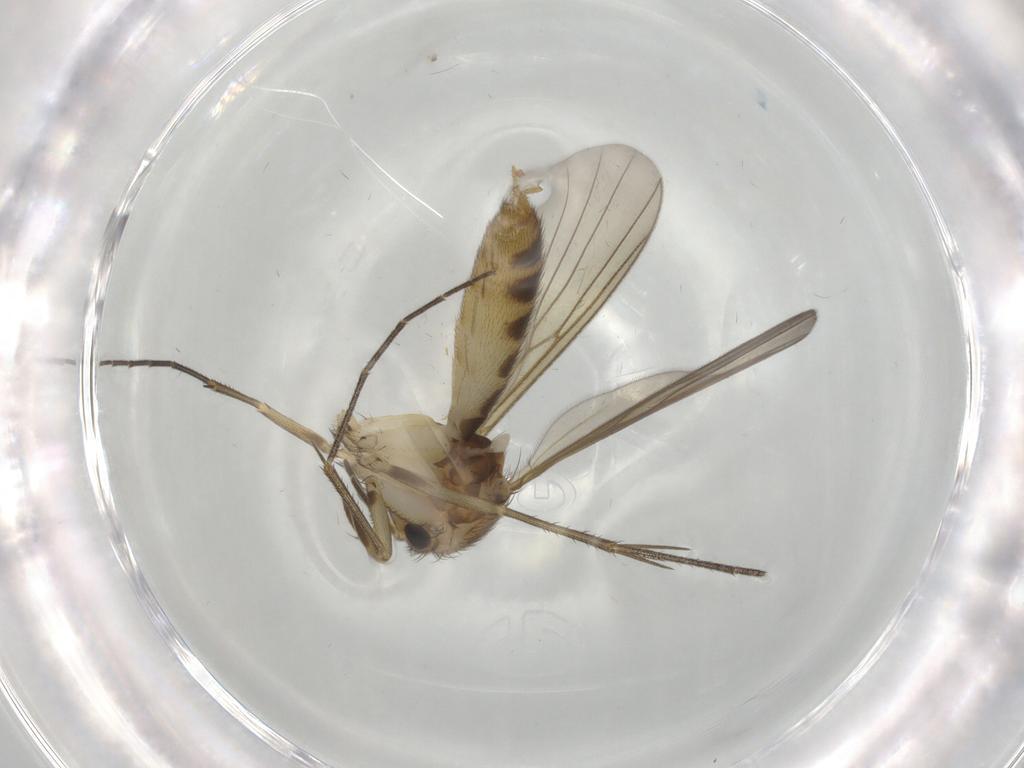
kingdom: Animalia
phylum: Arthropoda
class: Insecta
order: Diptera
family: Mycetophilidae
